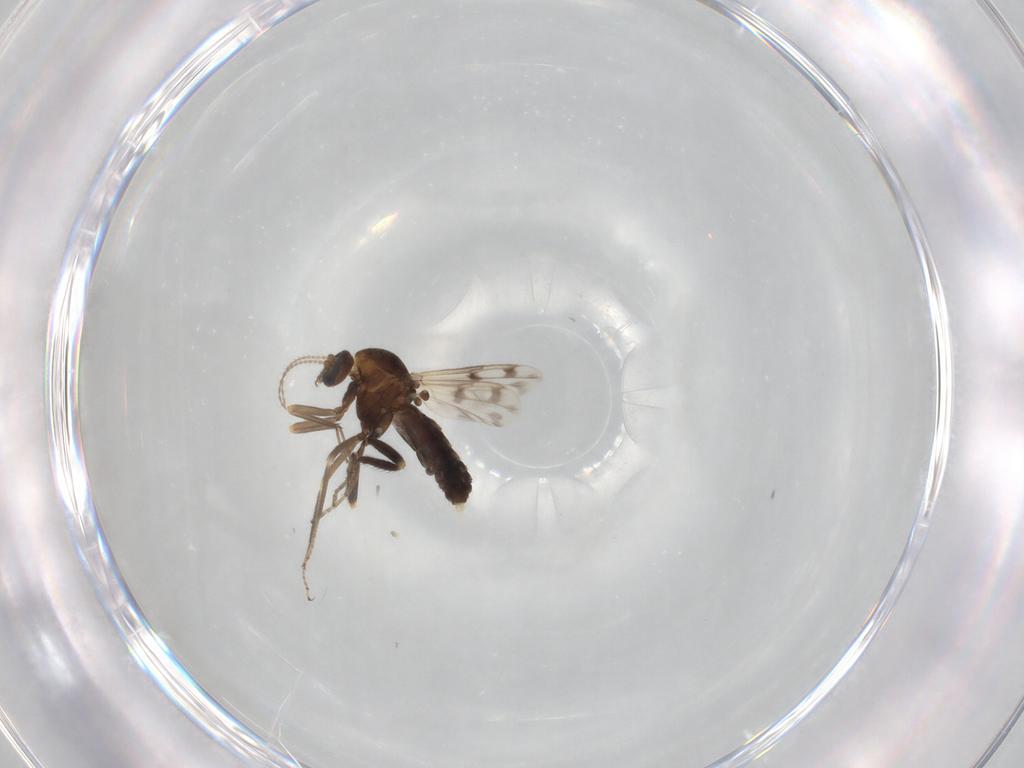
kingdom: Animalia
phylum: Arthropoda
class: Insecta
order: Diptera
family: Ceratopogonidae
